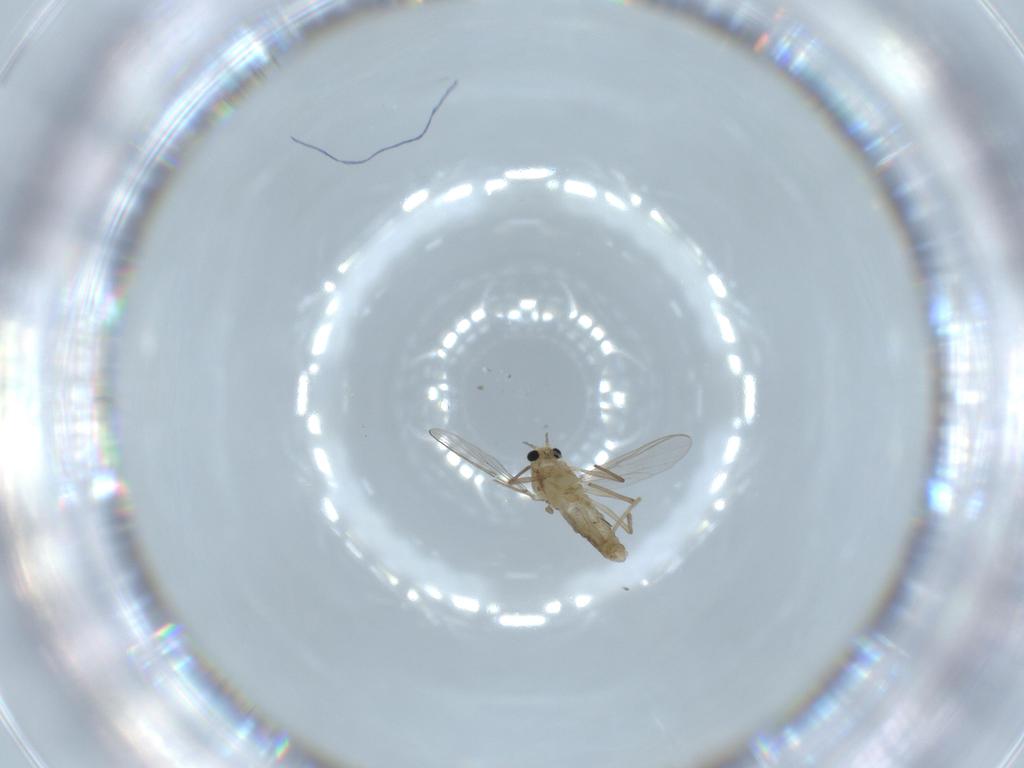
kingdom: Animalia
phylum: Arthropoda
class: Insecta
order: Diptera
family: Chironomidae
